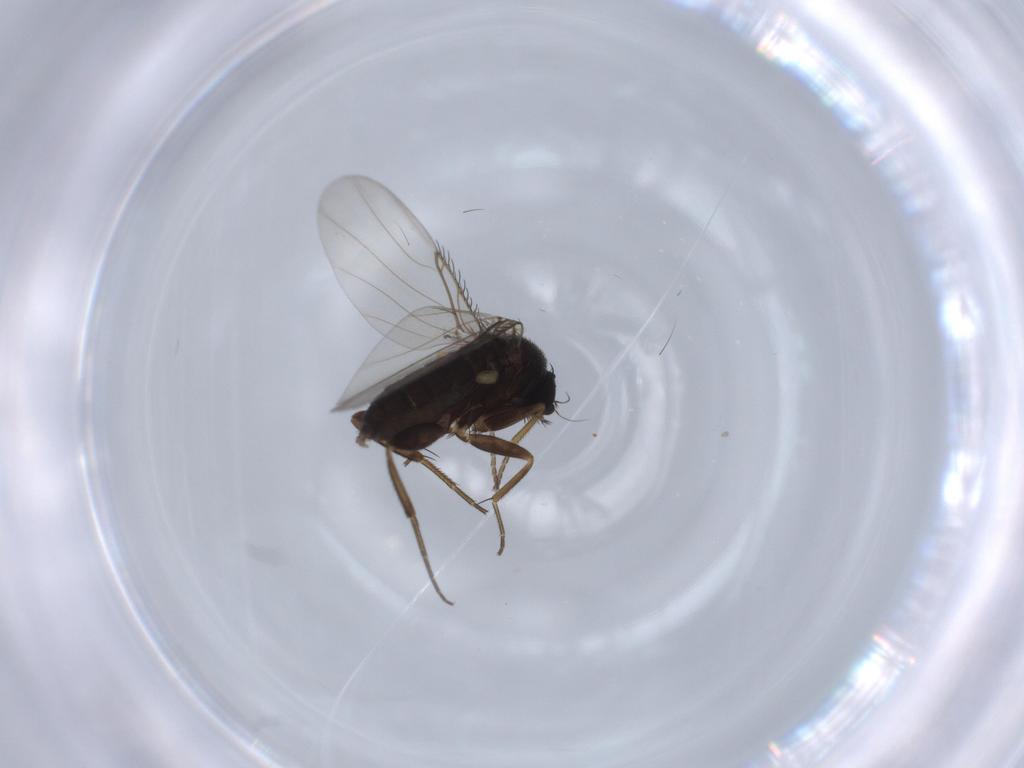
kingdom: Animalia
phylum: Arthropoda
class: Insecta
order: Diptera
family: Phoridae
